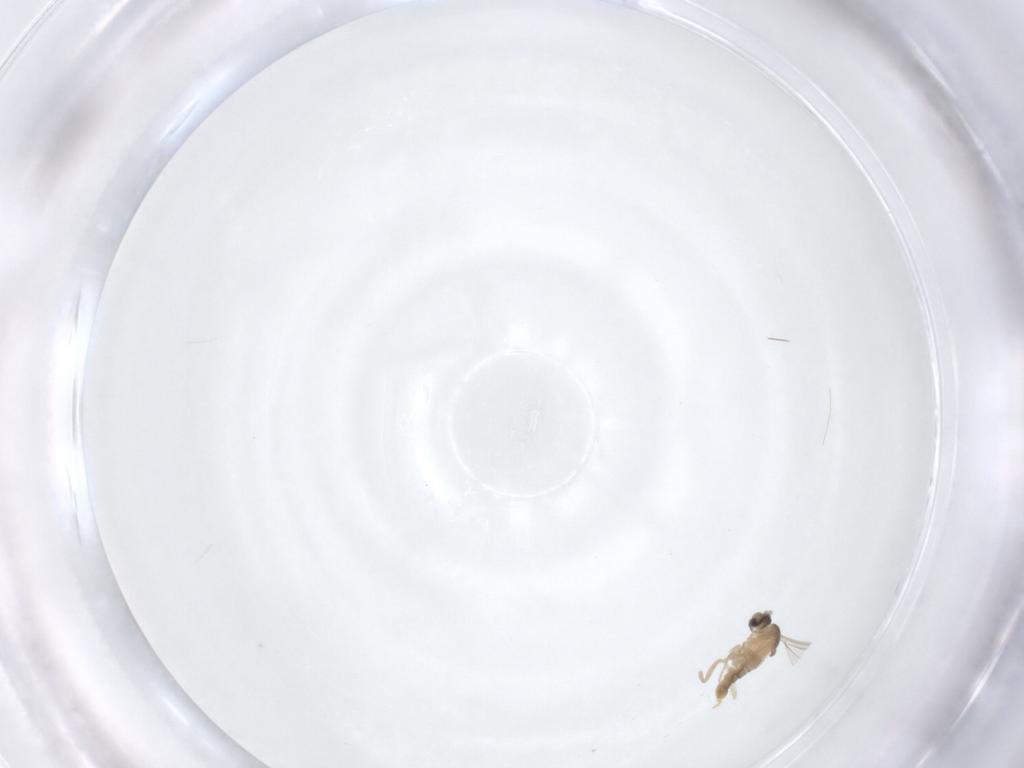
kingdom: Animalia
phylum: Arthropoda
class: Insecta
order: Diptera
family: Cecidomyiidae
